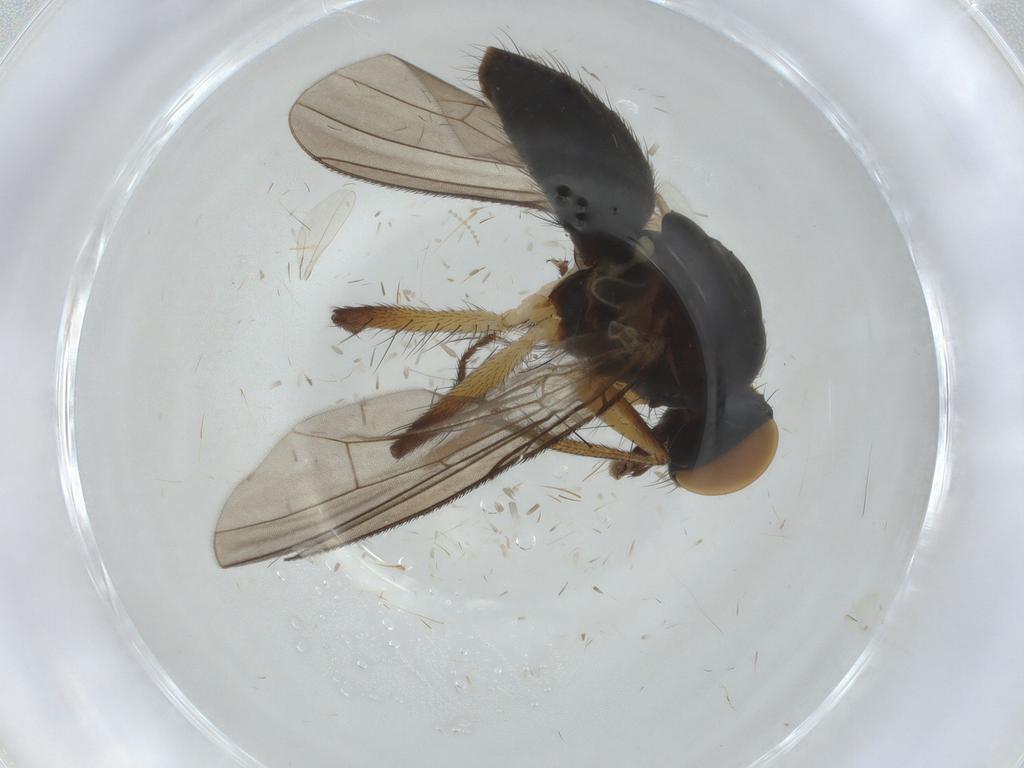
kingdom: Animalia
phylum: Arthropoda
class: Insecta
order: Diptera
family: Muscidae
